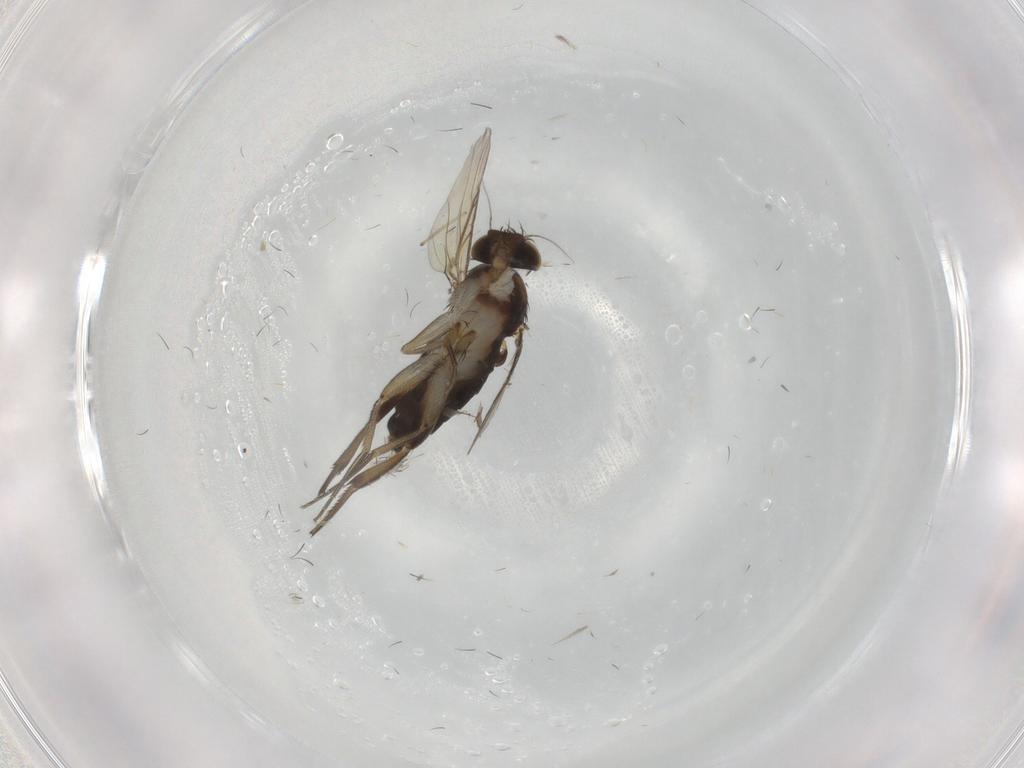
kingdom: Animalia
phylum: Arthropoda
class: Insecta
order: Diptera
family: Phoridae
